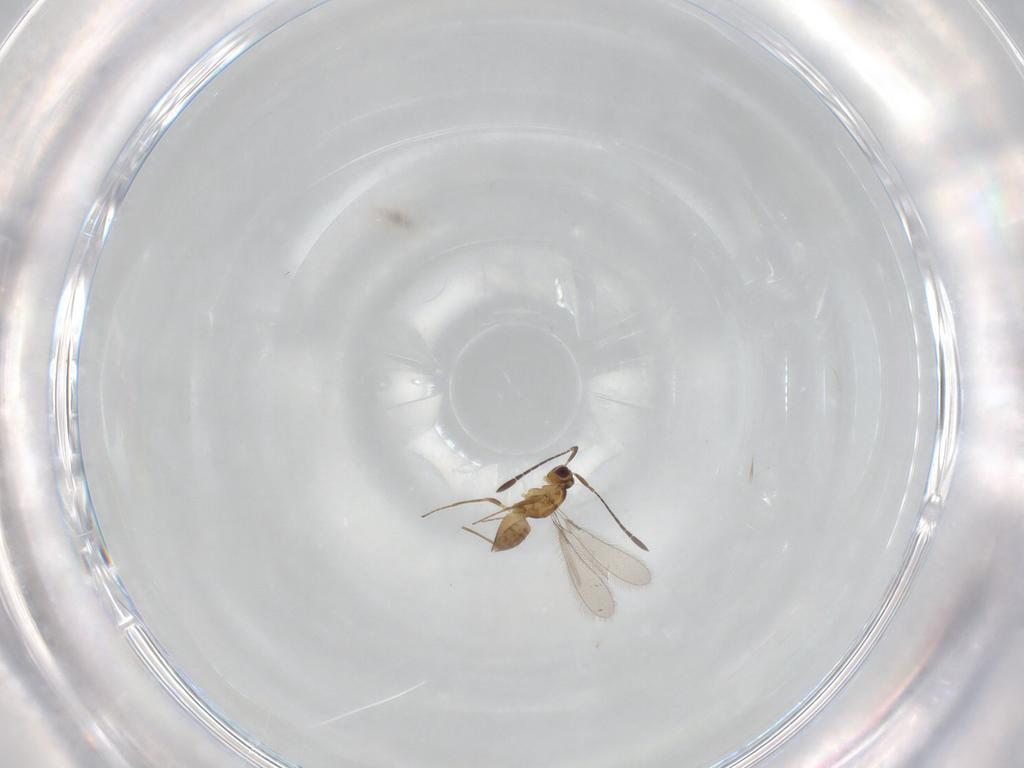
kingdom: Animalia
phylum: Arthropoda
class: Insecta
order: Hymenoptera
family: Mymaridae
